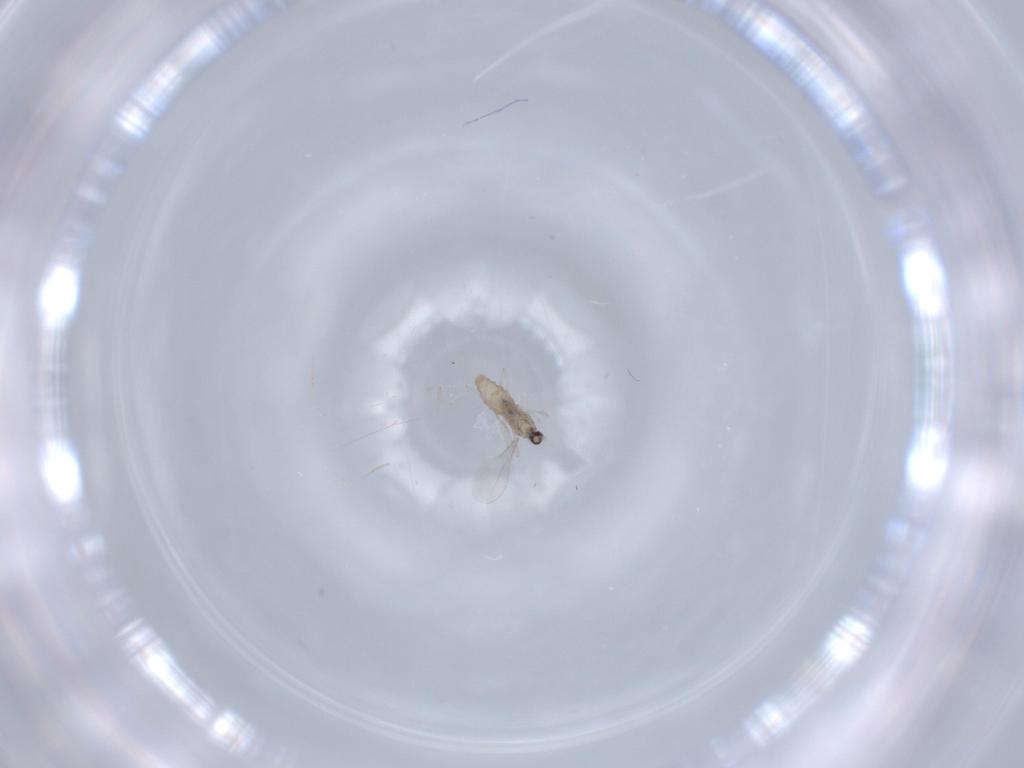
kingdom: Animalia
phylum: Arthropoda
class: Insecta
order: Diptera
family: Cecidomyiidae
